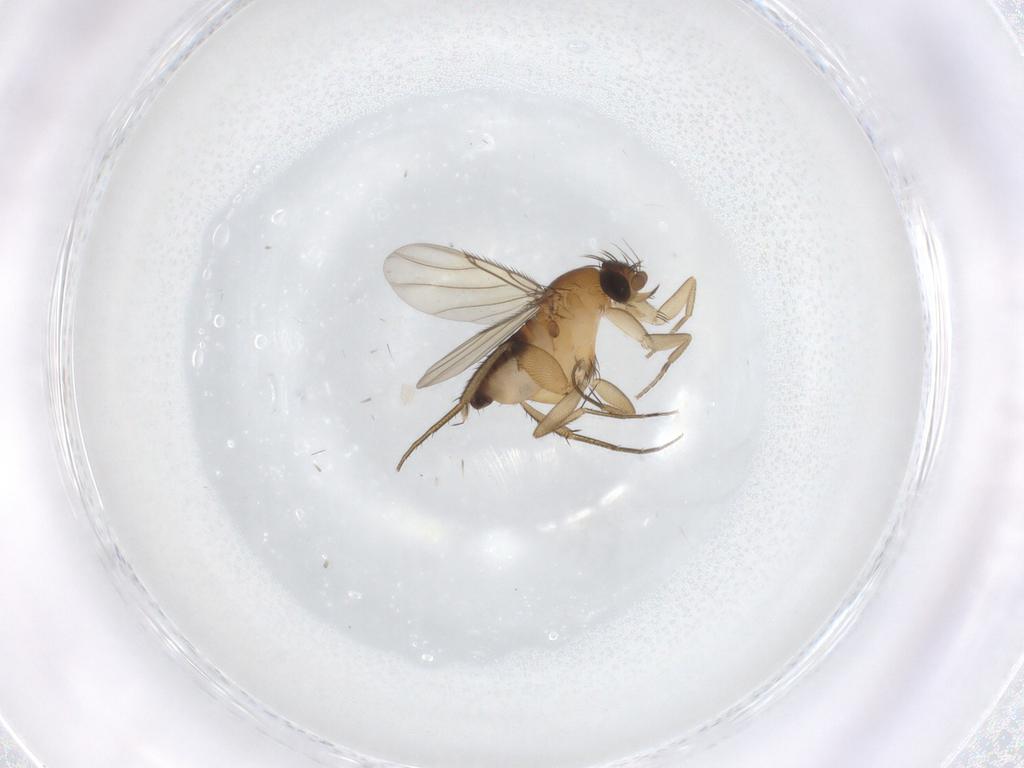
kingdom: Animalia
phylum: Arthropoda
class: Insecta
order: Diptera
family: Phoridae
